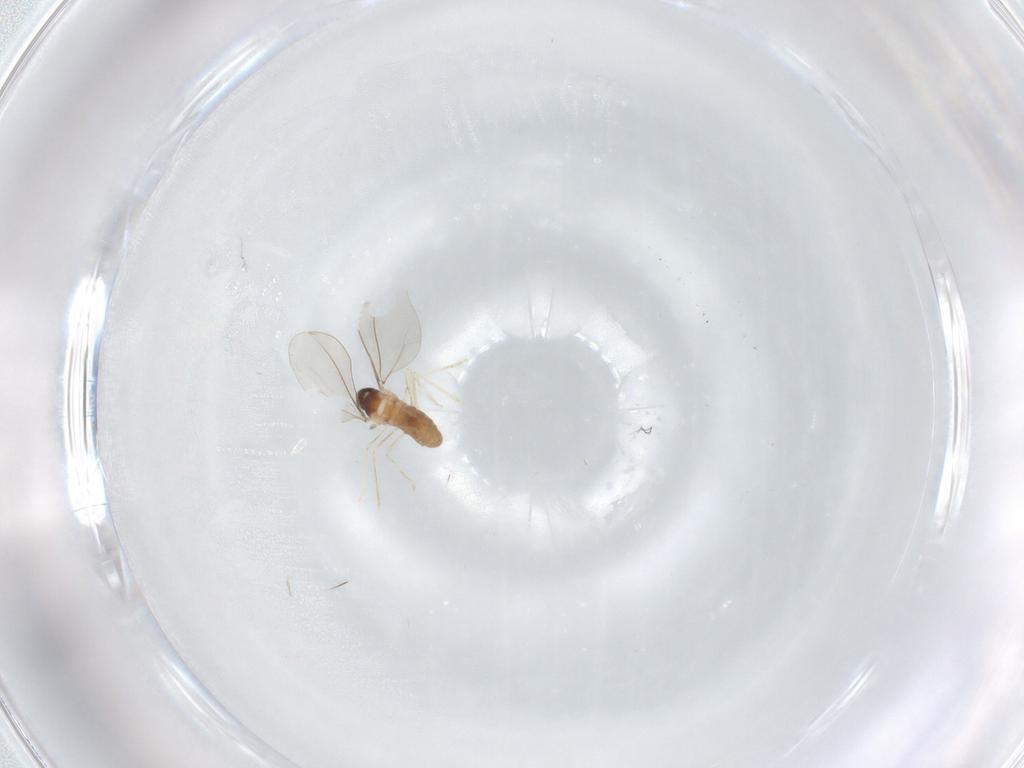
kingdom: Animalia
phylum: Arthropoda
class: Insecta
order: Diptera
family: Cecidomyiidae
